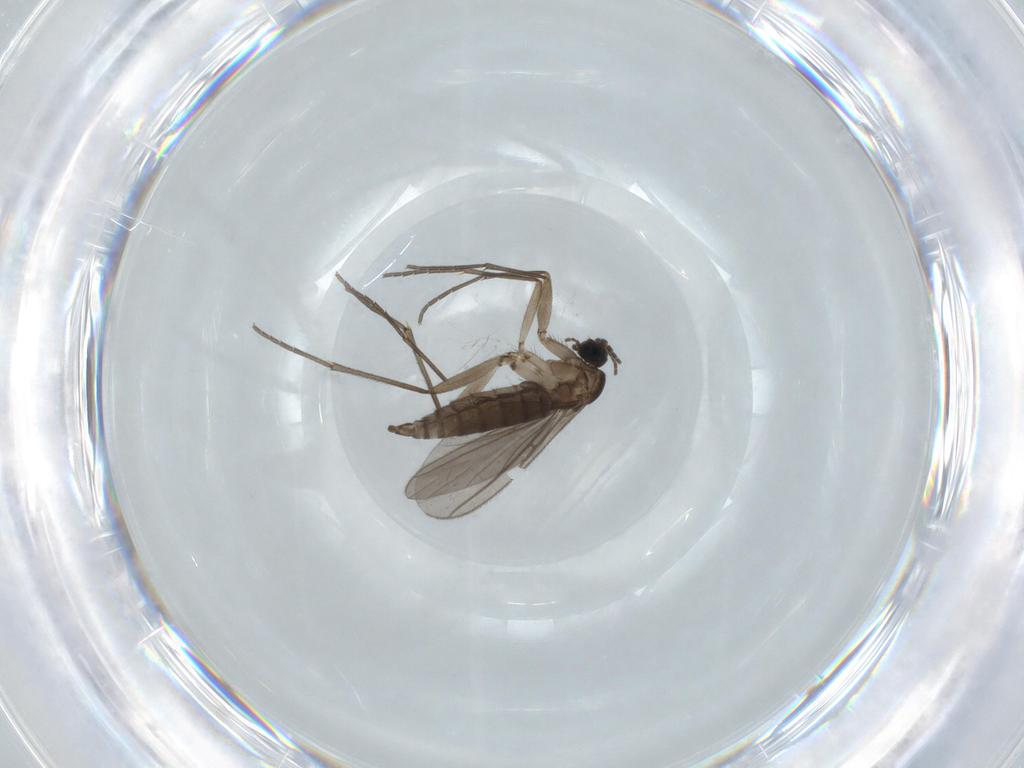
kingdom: Animalia
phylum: Arthropoda
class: Insecta
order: Diptera
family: Sciaridae
